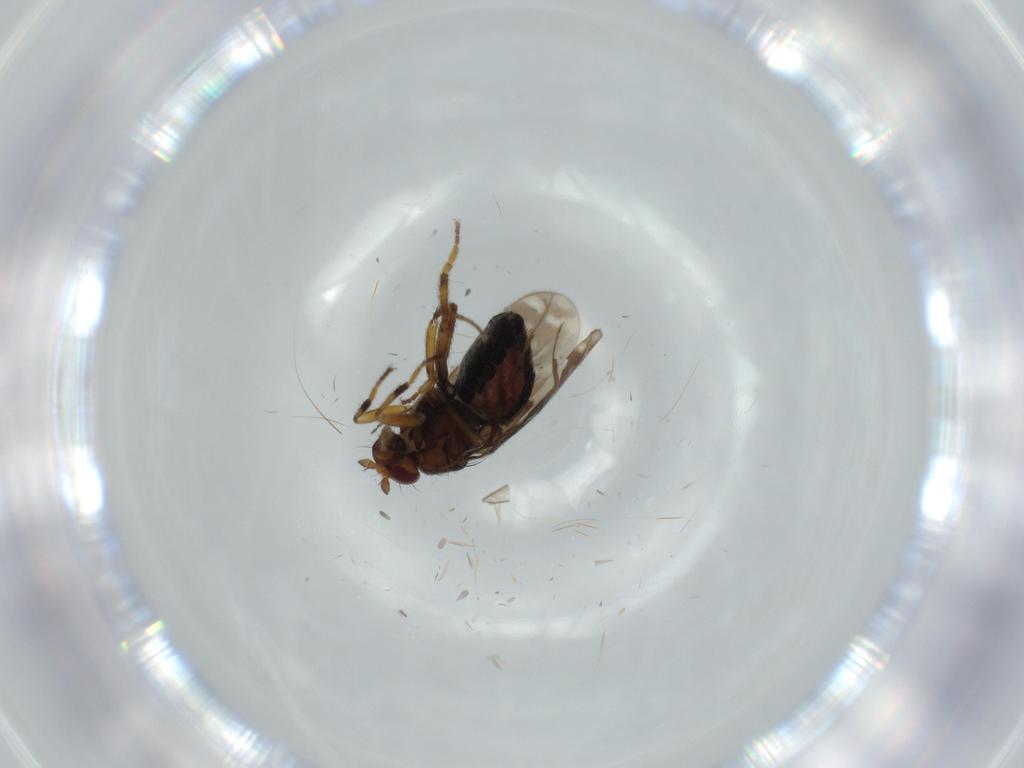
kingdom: Animalia
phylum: Arthropoda
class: Insecta
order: Diptera
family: Sphaeroceridae
